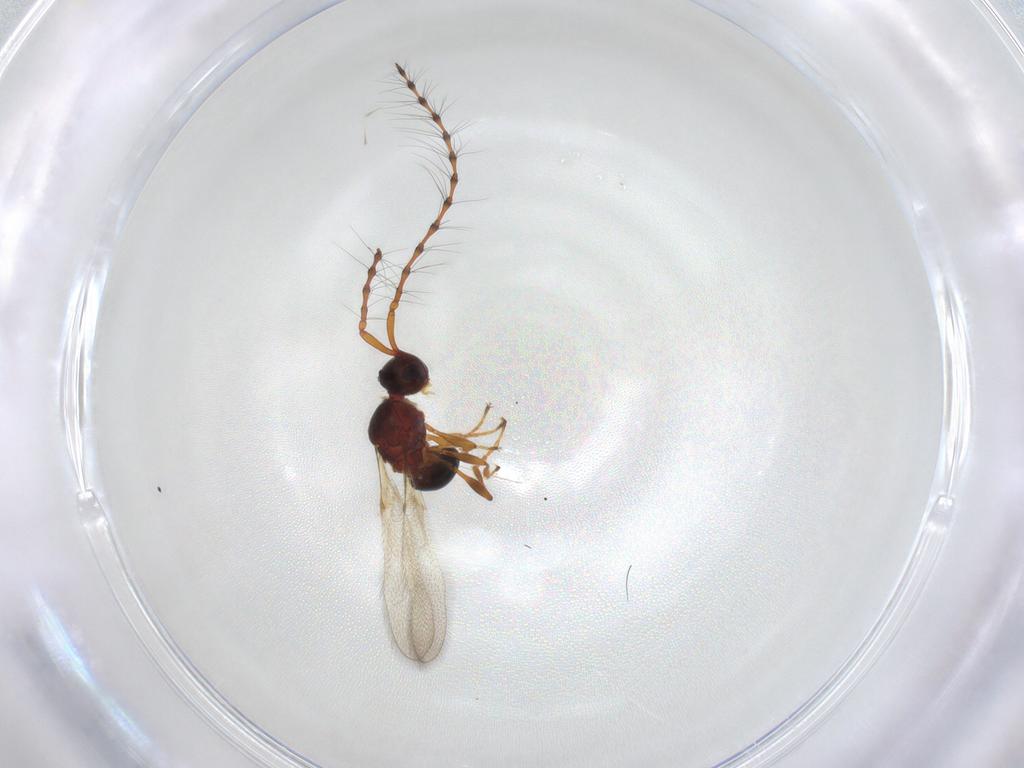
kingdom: Animalia
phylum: Arthropoda
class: Insecta
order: Hymenoptera
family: Diapriidae
